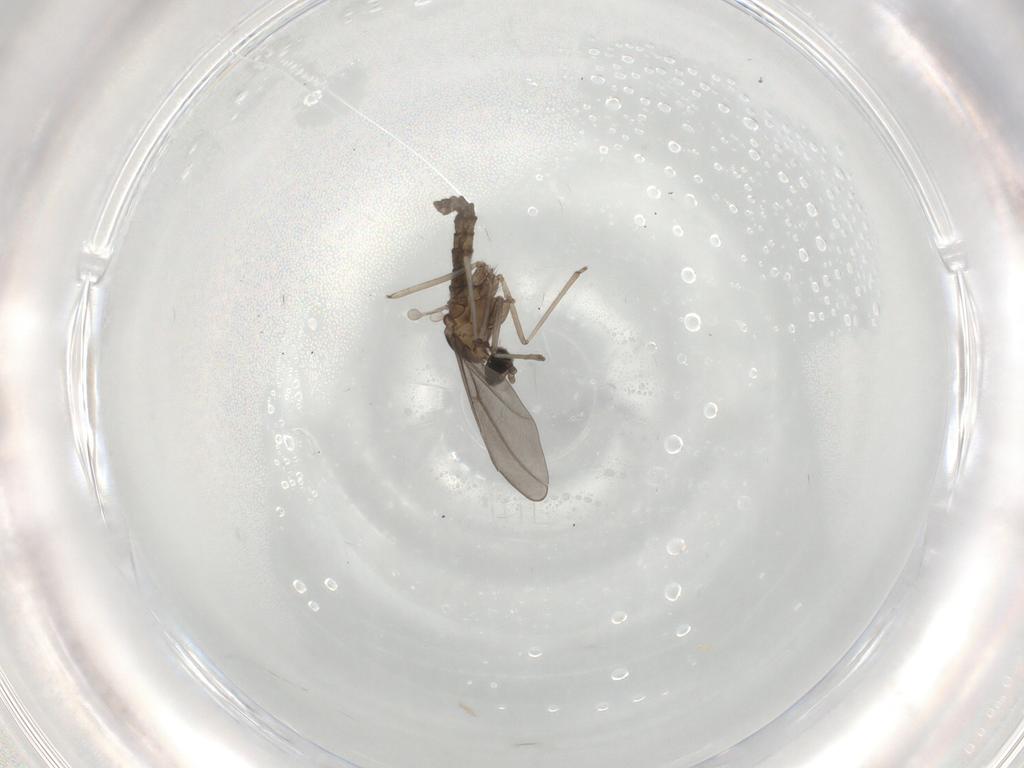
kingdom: Animalia
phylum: Arthropoda
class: Insecta
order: Diptera
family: Cecidomyiidae
